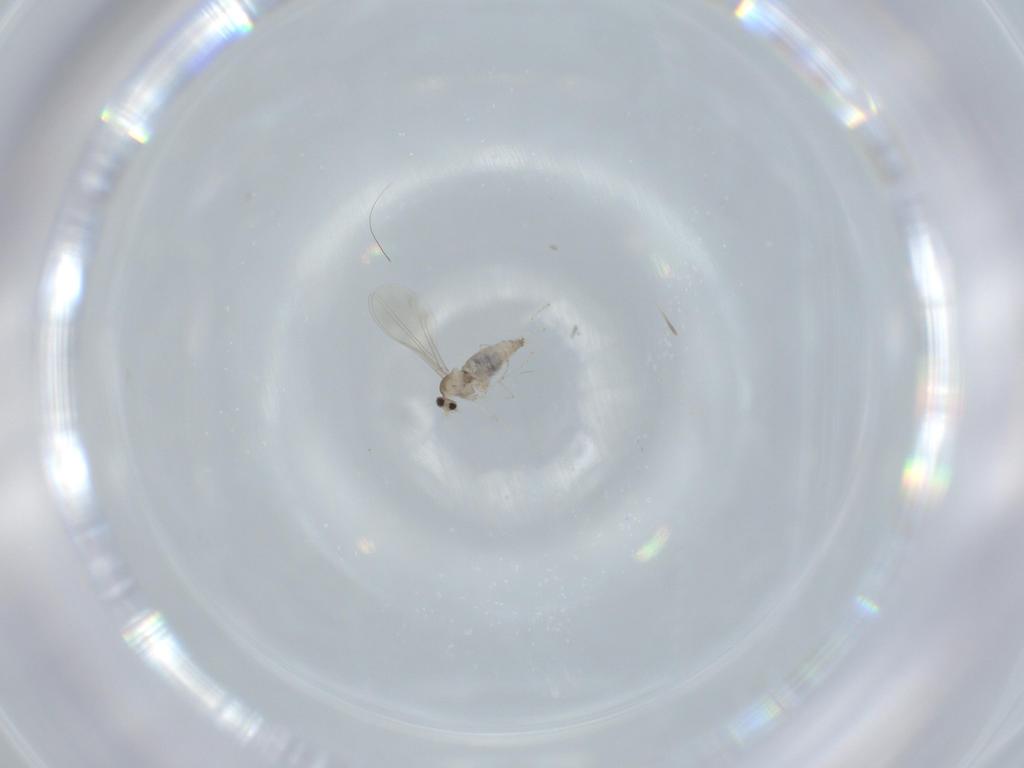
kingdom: Animalia
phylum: Arthropoda
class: Insecta
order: Diptera
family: Cecidomyiidae
